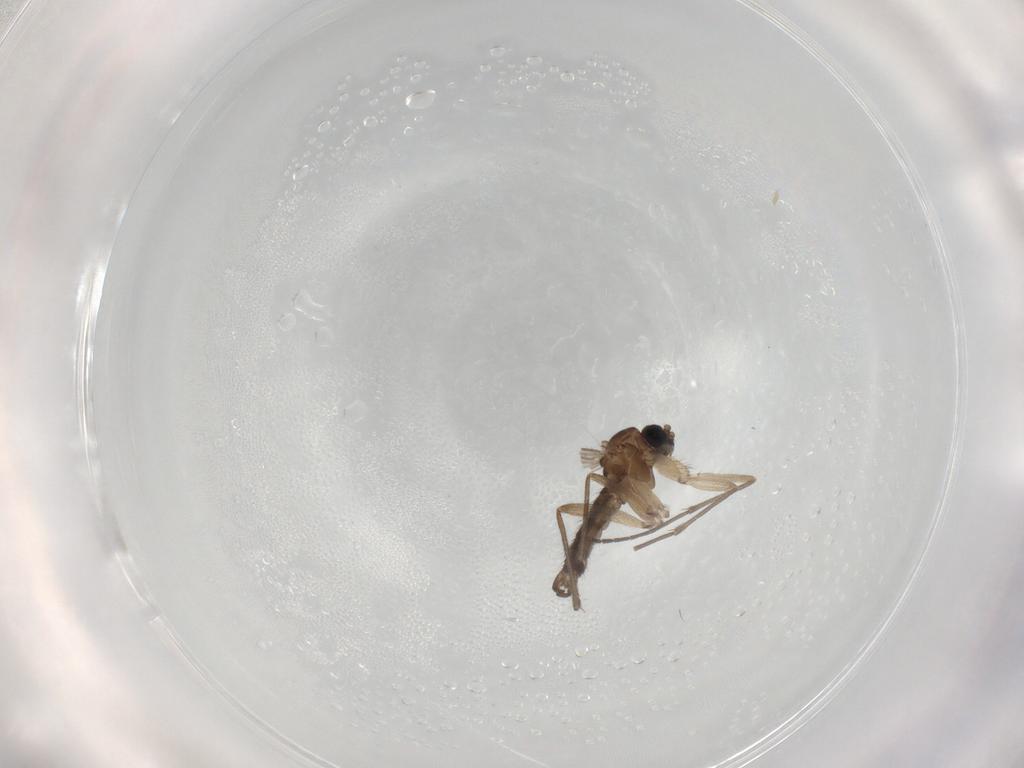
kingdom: Animalia
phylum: Arthropoda
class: Insecta
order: Diptera
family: Sciaridae
